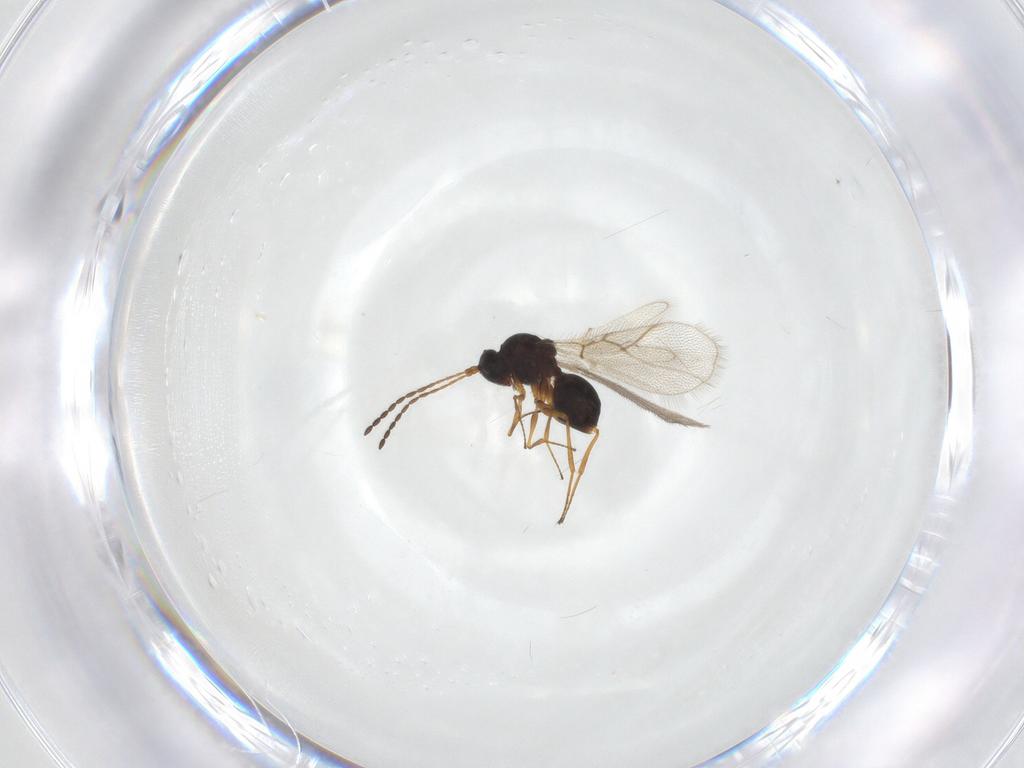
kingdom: Animalia
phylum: Arthropoda
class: Insecta
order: Hymenoptera
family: Figitidae
